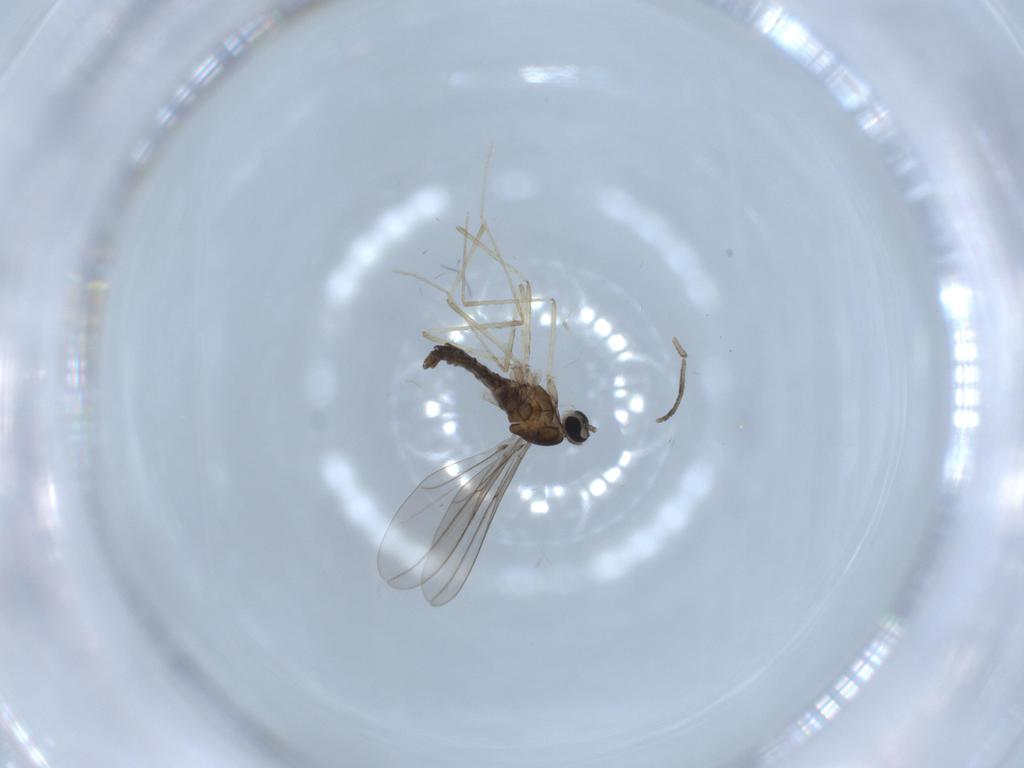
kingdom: Animalia
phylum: Arthropoda
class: Insecta
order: Diptera
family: Cecidomyiidae
